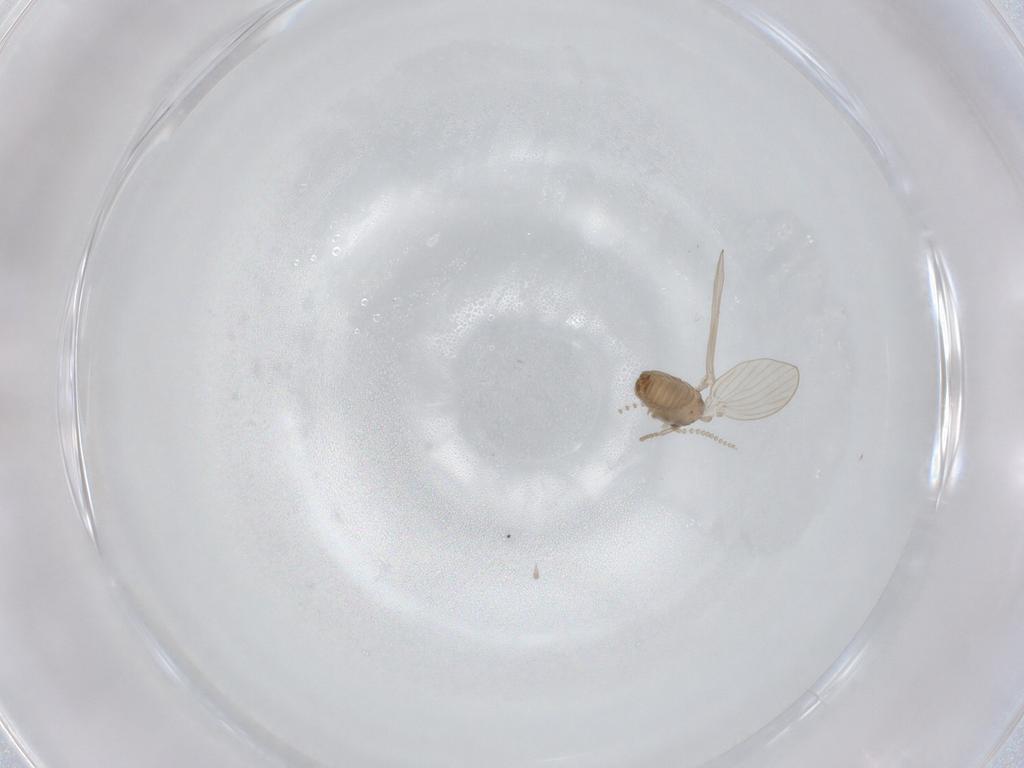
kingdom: Animalia
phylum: Arthropoda
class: Insecta
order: Diptera
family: Psychodidae
